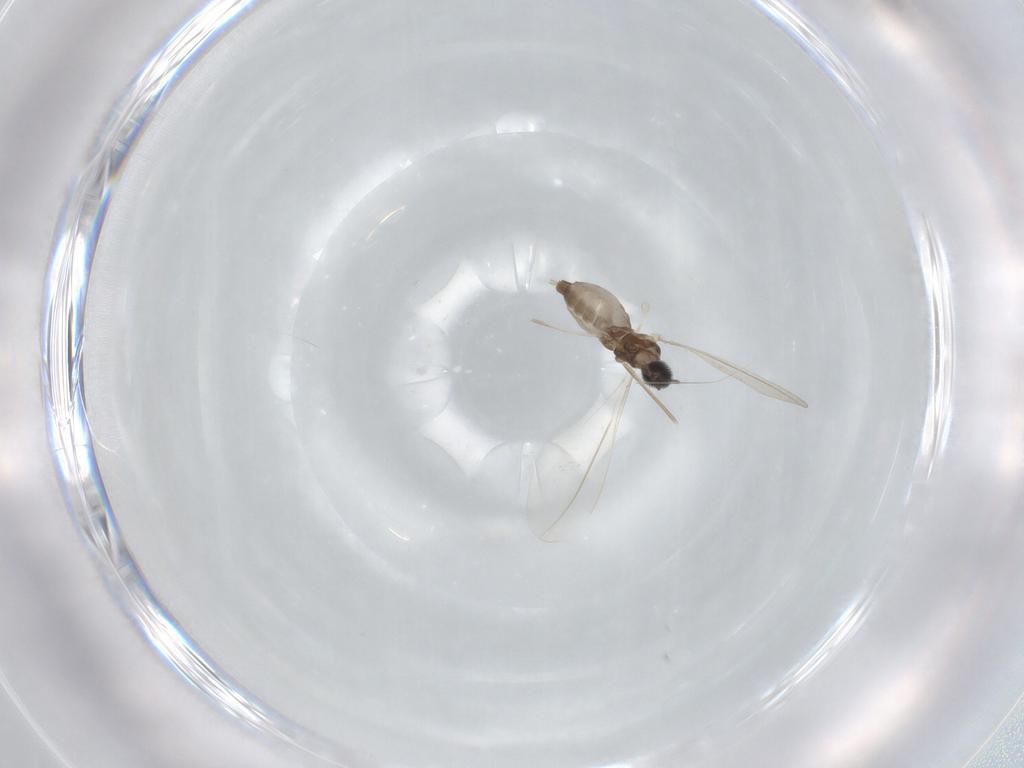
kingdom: Animalia
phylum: Arthropoda
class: Insecta
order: Diptera
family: Cecidomyiidae
